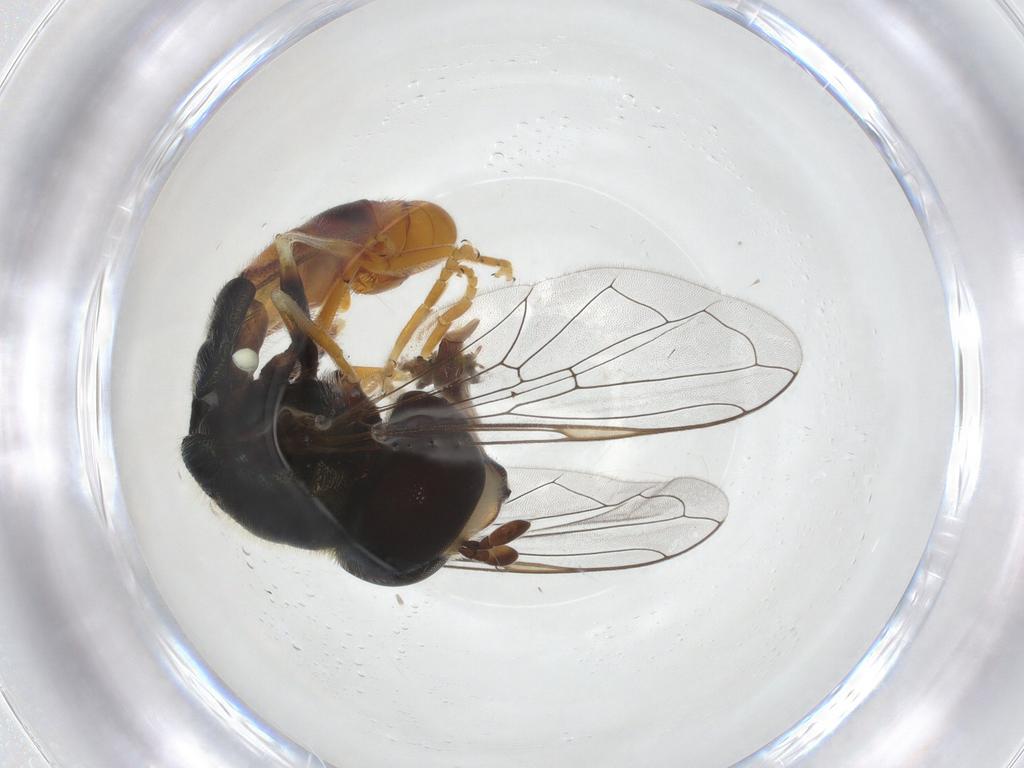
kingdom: Animalia
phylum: Arthropoda
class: Insecta
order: Diptera
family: Syrphidae
